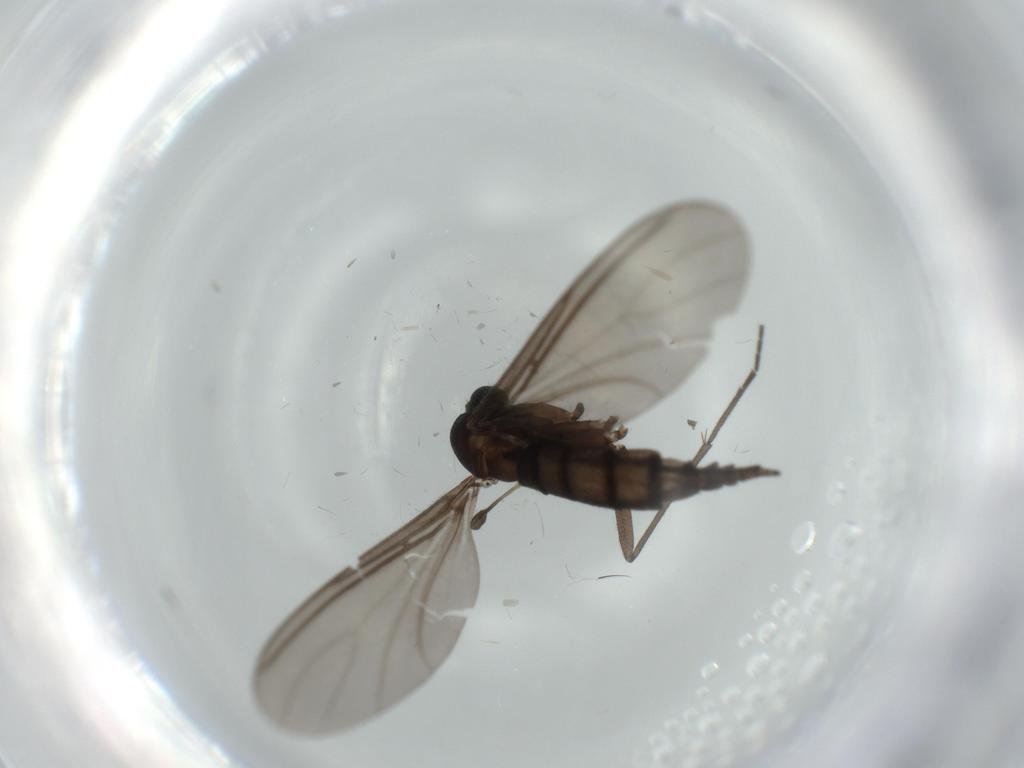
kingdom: Animalia
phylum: Arthropoda
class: Insecta
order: Diptera
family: Sciaridae
